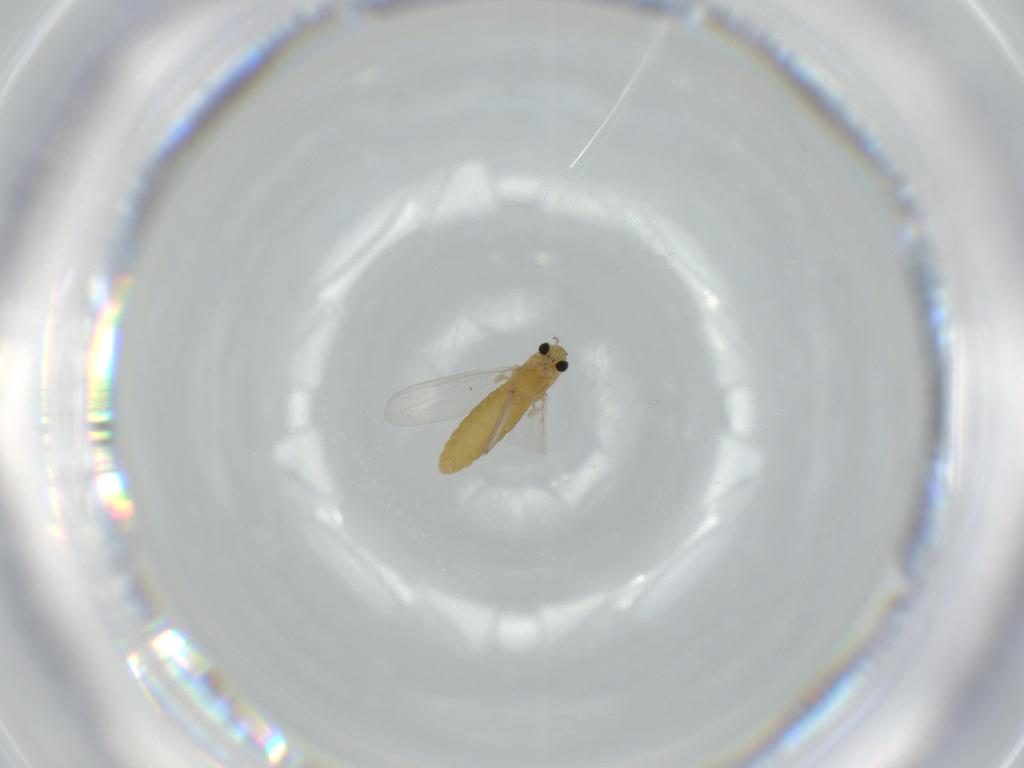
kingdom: Animalia
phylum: Arthropoda
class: Insecta
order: Diptera
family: Chironomidae
